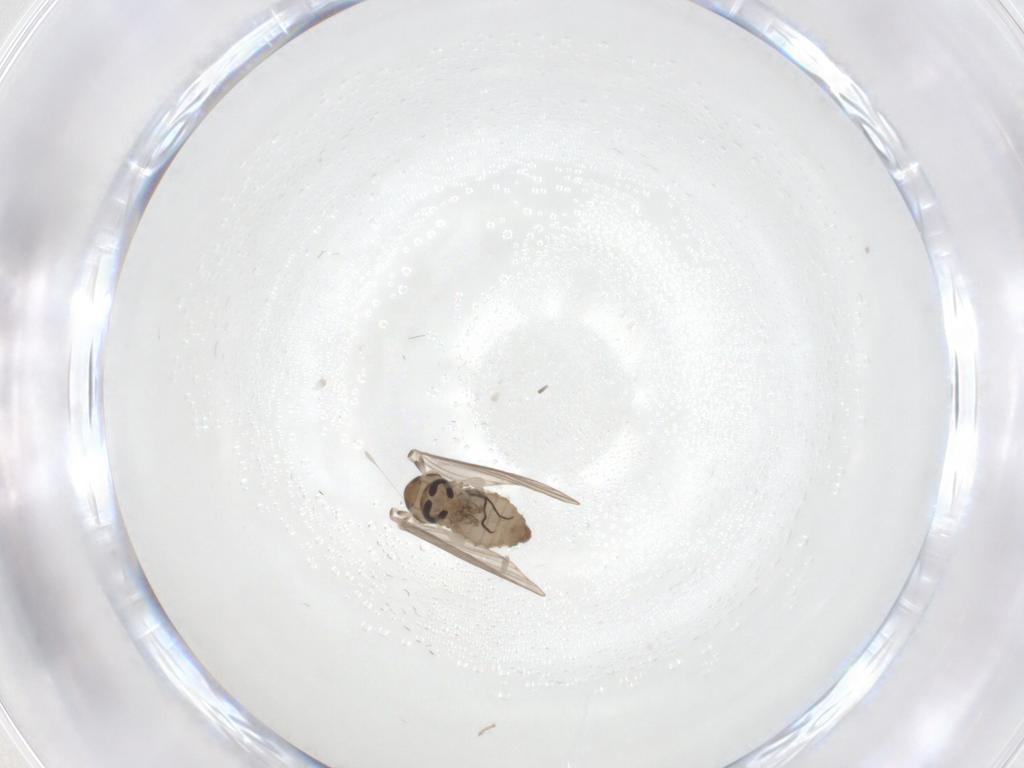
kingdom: Animalia
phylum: Arthropoda
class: Insecta
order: Diptera
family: Psychodidae
